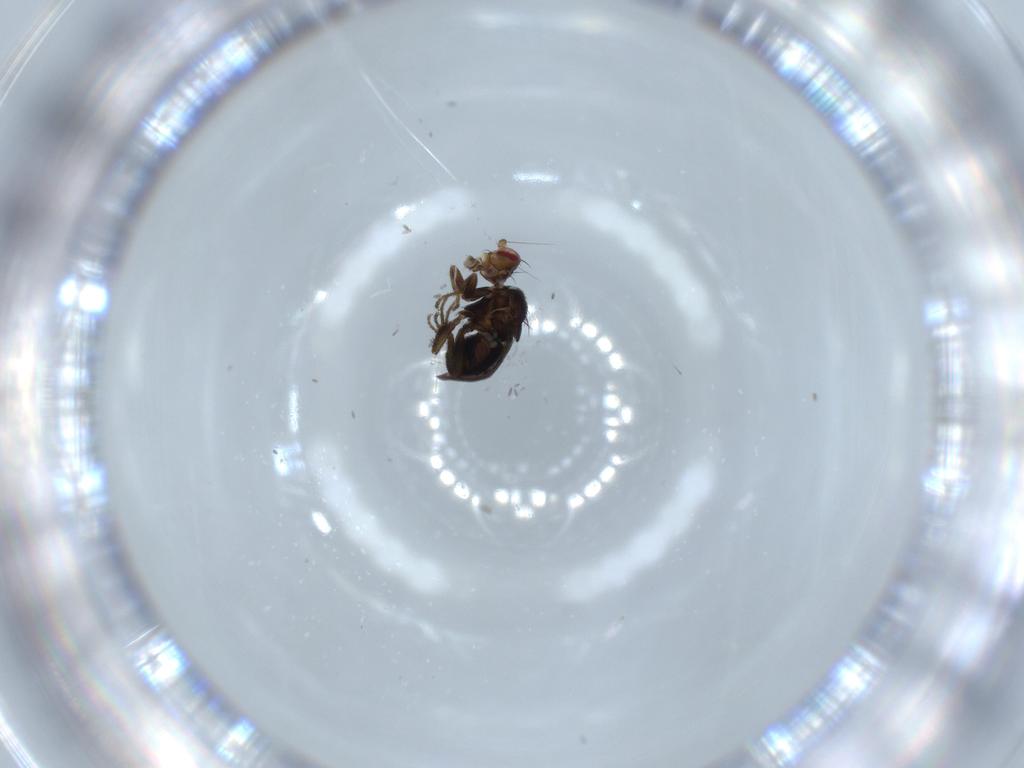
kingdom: Animalia
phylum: Arthropoda
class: Insecta
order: Diptera
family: Sphaeroceridae
